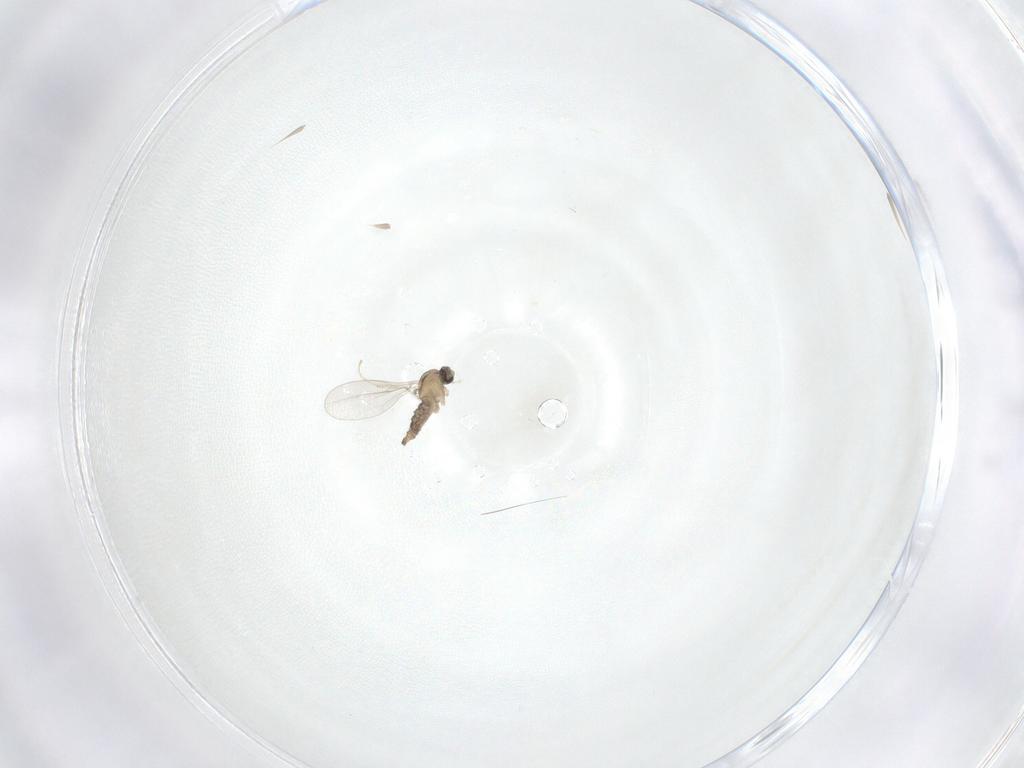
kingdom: Animalia
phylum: Arthropoda
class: Insecta
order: Diptera
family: Cecidomyiidae
